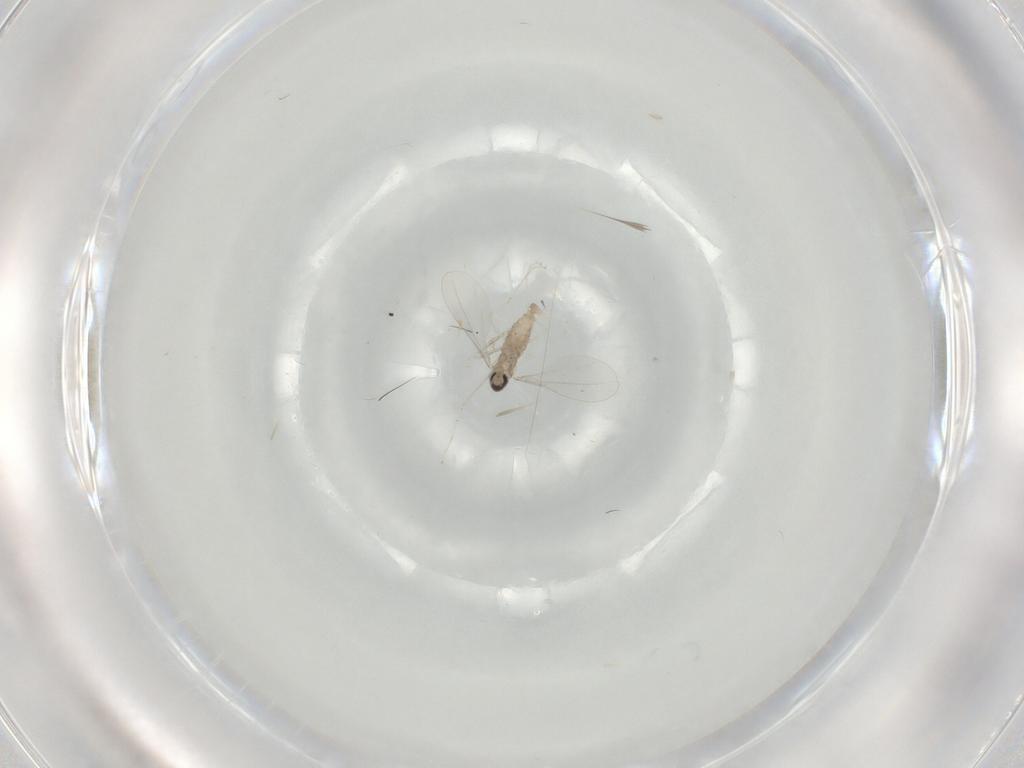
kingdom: Animalia
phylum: Arthropoda
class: Insecta
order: Diptera
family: Cecidomyiidae
